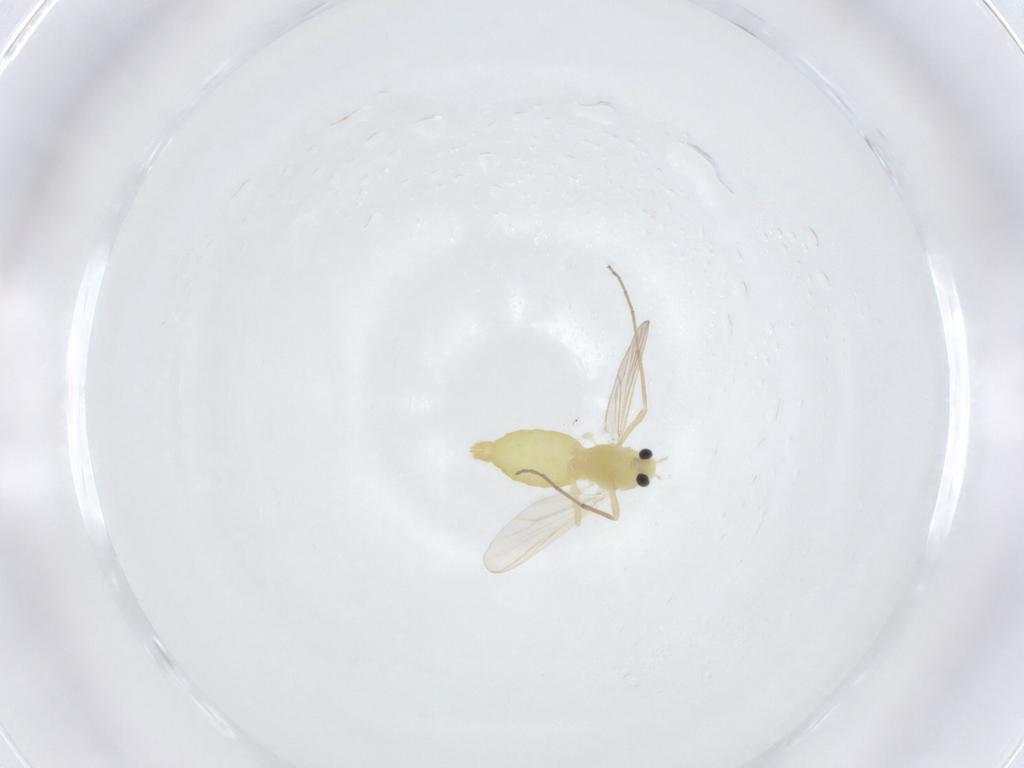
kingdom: Animalia
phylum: Arthropoda
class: Insecta
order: Diptera
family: Chironomidae
